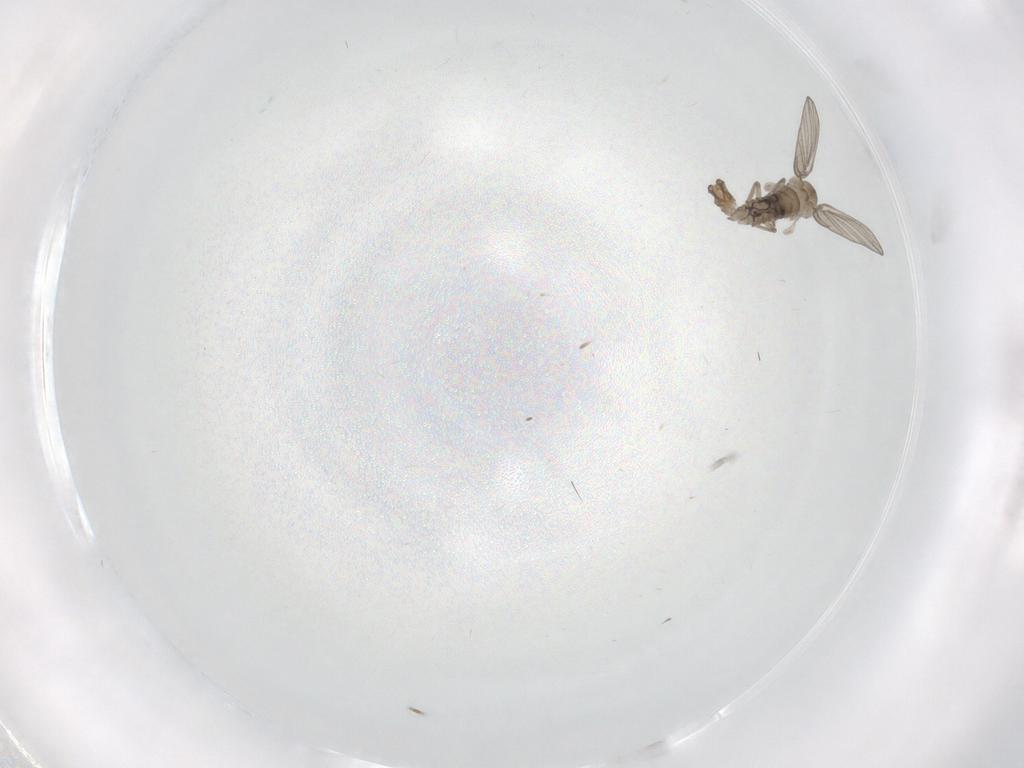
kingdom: Animalia
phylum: Arthropoda
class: Insecta
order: Diptera
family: Psychodidae
